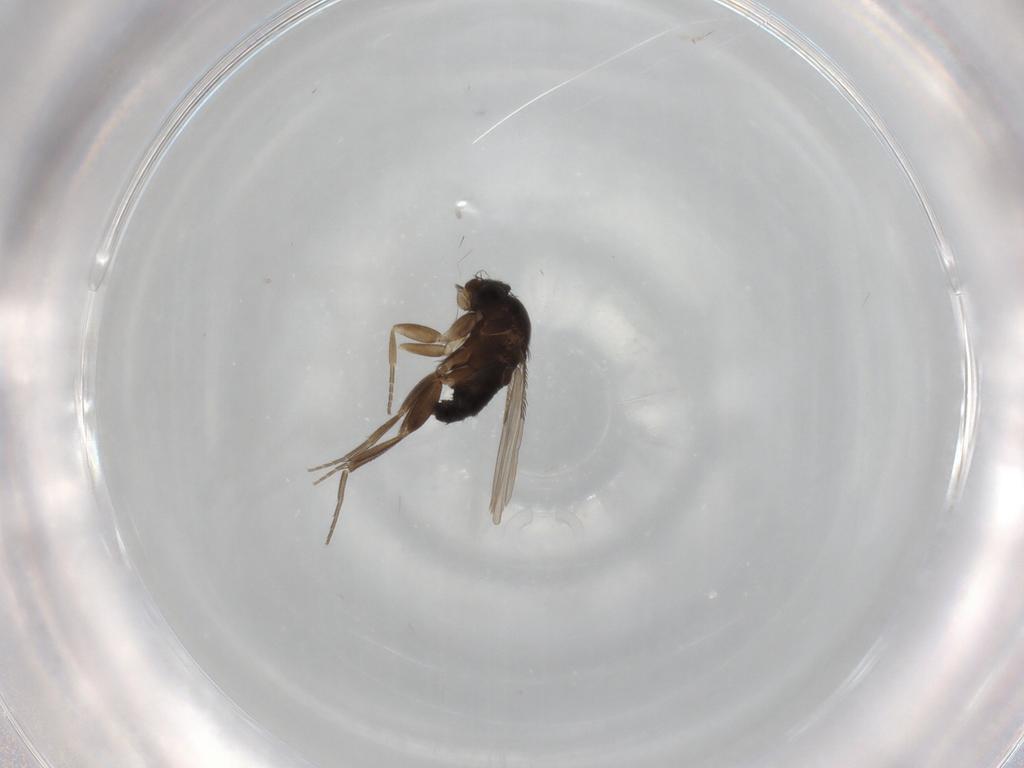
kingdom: Animalia
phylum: Arthropoda
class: Insecta
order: Diptera
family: Phoridae
